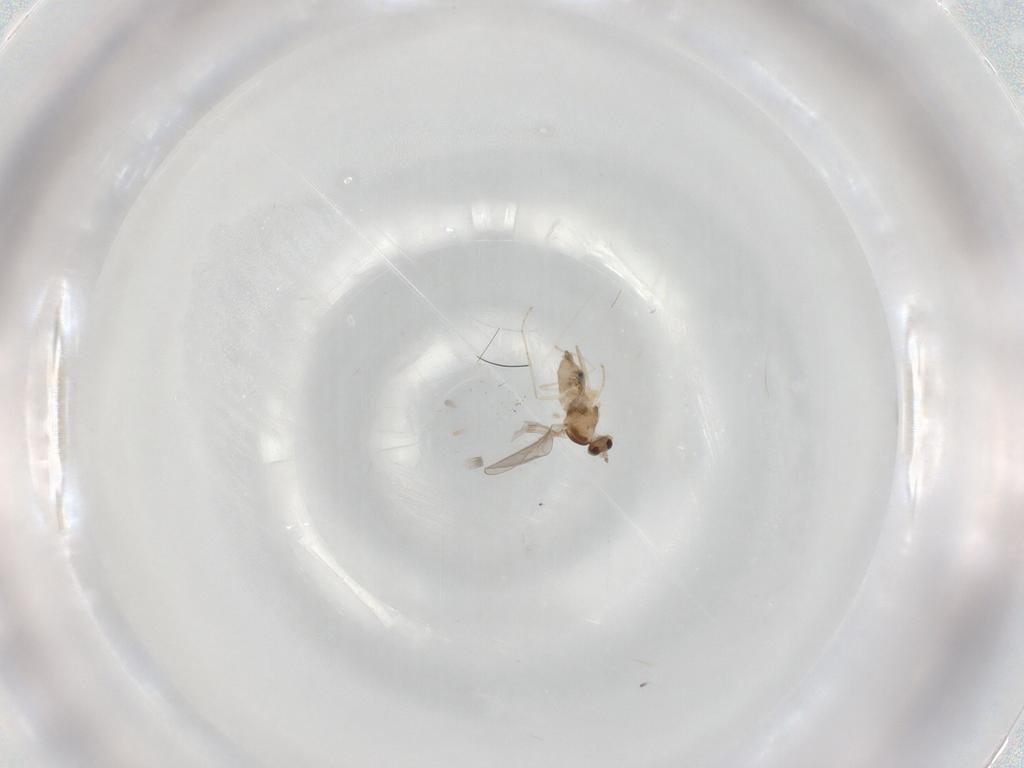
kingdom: Animalia
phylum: Arthropoda
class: Insecta
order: Diptera
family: Cecidomyiidae
